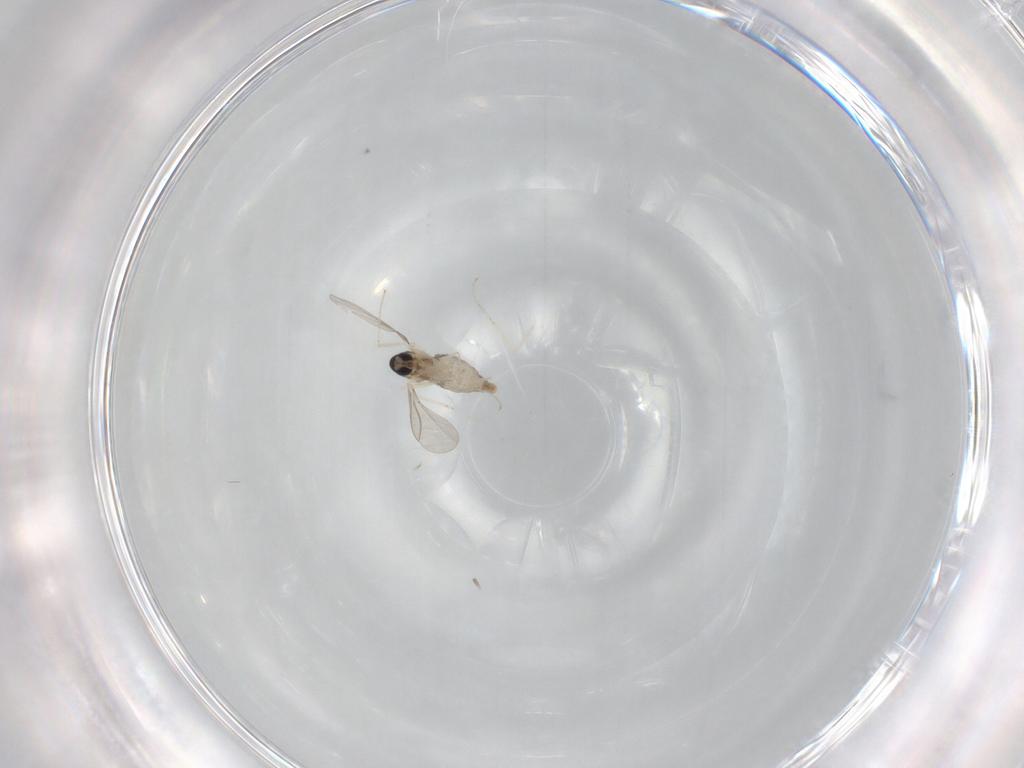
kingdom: Animalia
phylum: Arthropoda
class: Insecta
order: Diptera
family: Cecidomyiidae
